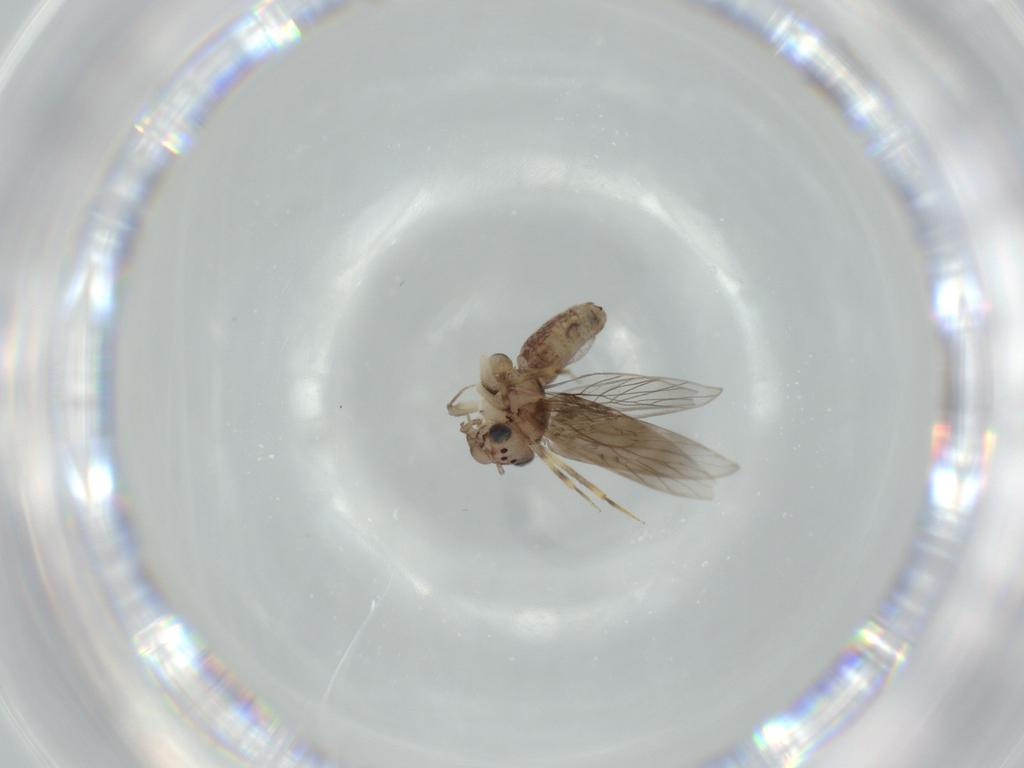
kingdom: Animalia
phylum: Arthropoda
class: Insecta
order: Psocodea
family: Lepidopsocidae
